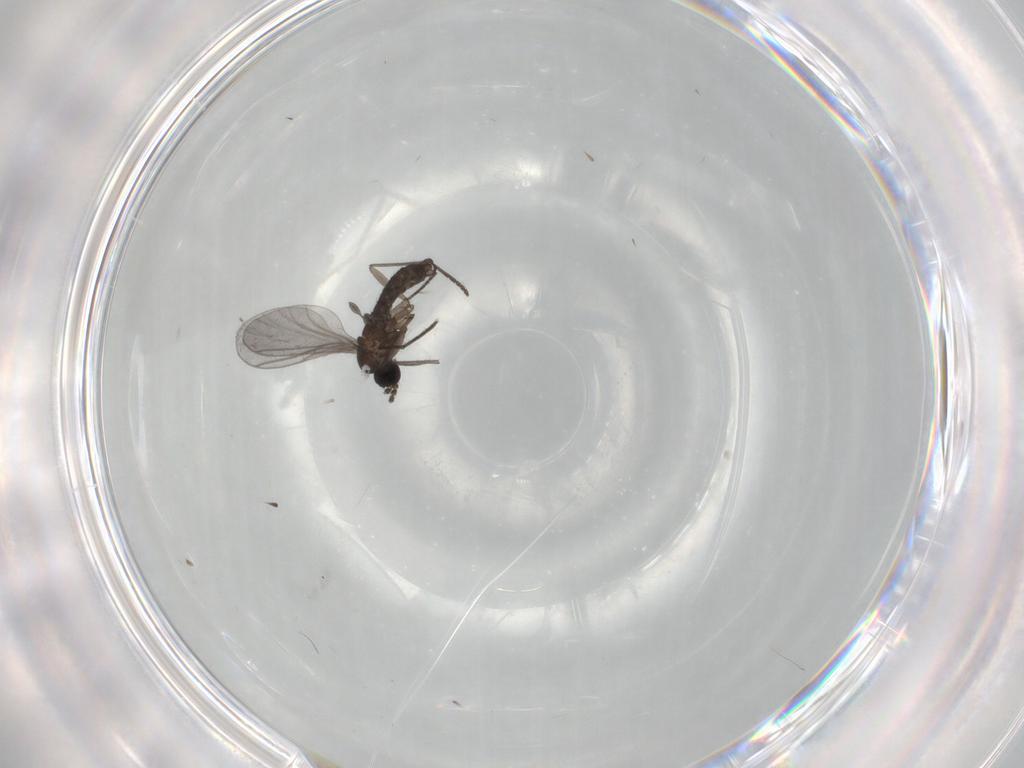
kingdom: Animalia
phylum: Arthropoda
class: Insecta
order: Diptera
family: Sciaridae
